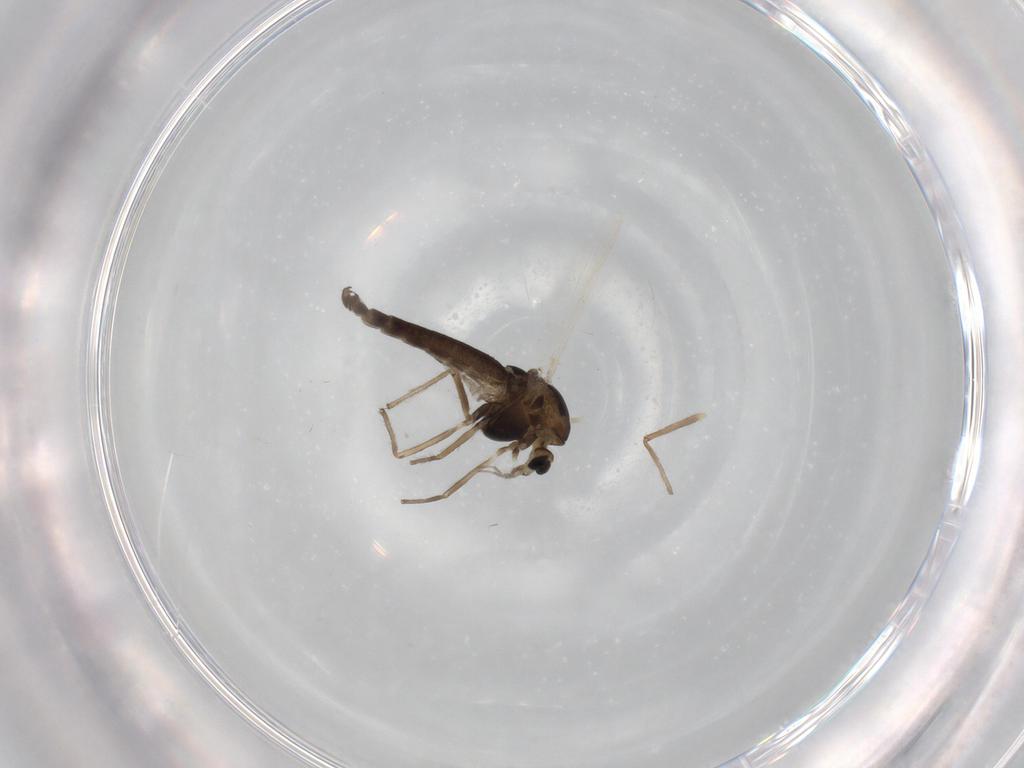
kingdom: Animalia
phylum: Arthropoda
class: Insecta
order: Diptera
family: Chironomidae
